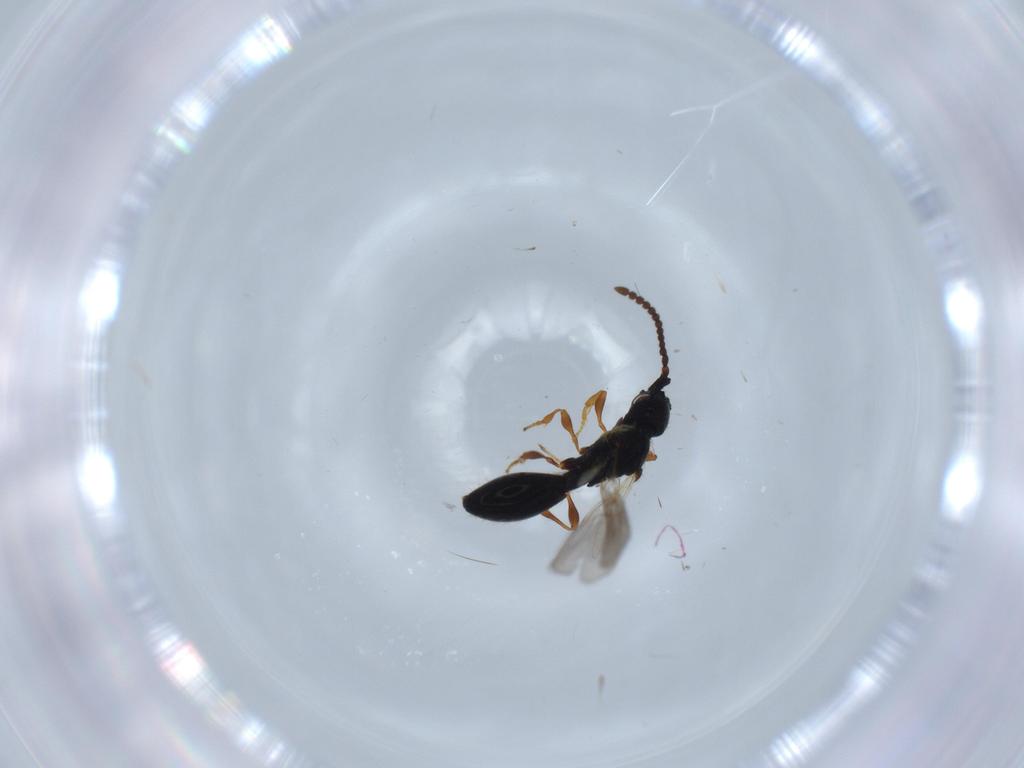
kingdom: Animalia
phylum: Arthropoda
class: Insecta
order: Hymenoptera
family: Diapriidae
